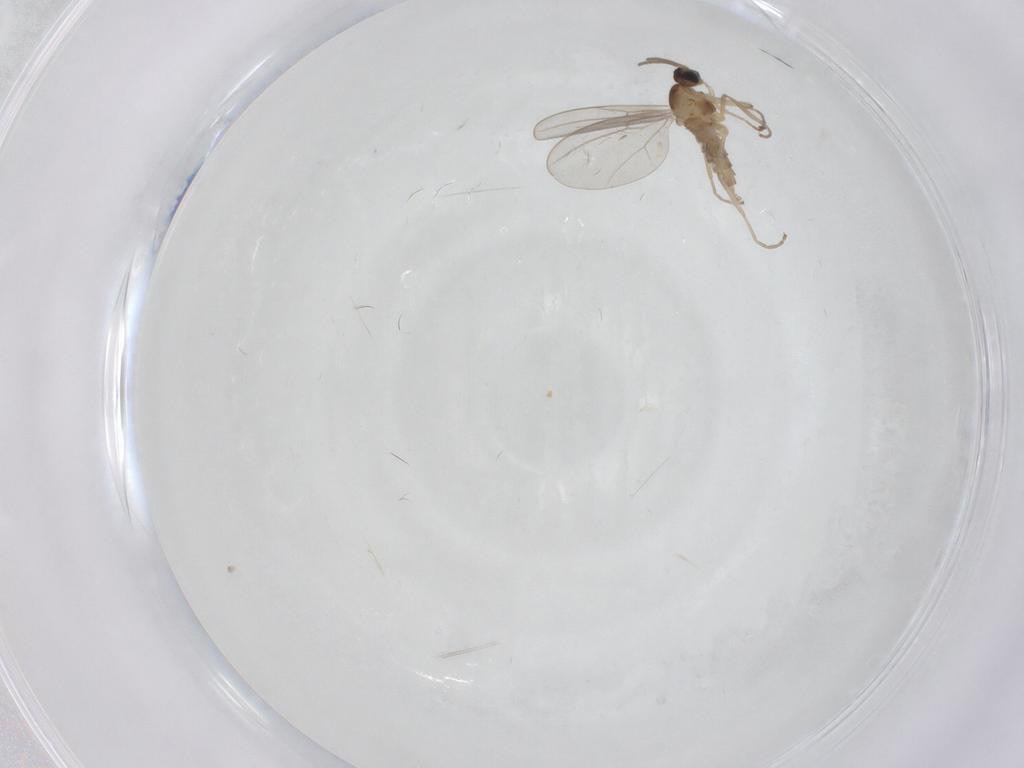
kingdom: Animalia
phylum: Arthropoda
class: Insecta
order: Diptera
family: Cecidomyiidae
